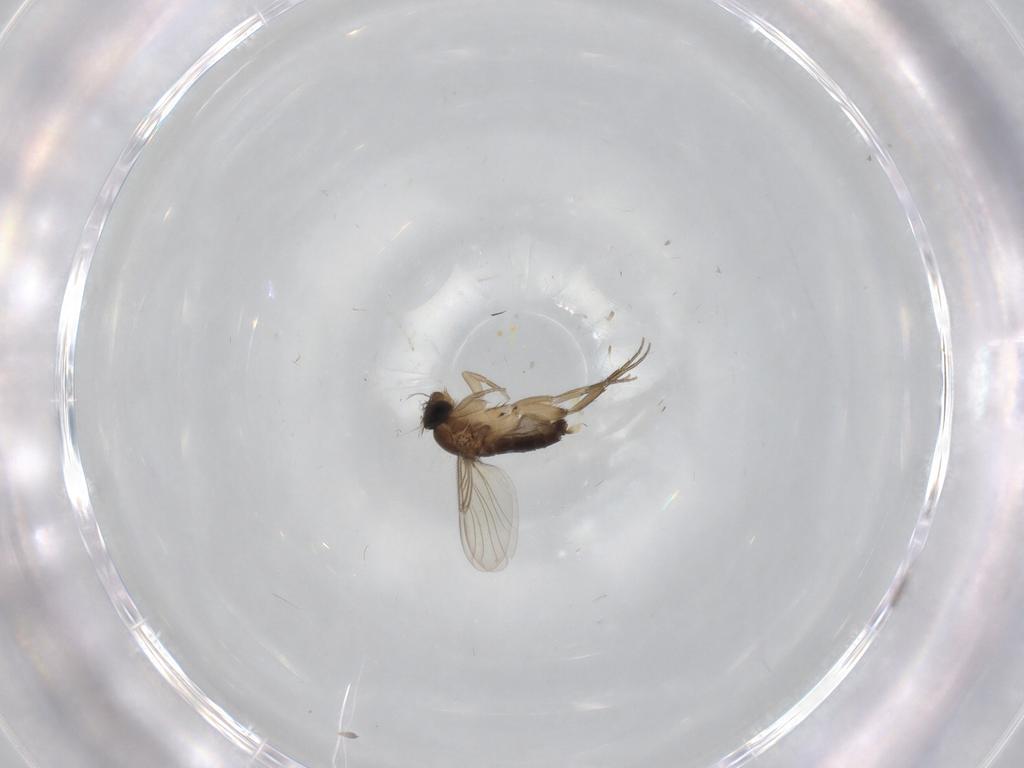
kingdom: Animalia
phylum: Arthropoda
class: Insecta
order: Diptera
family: Phoridae
